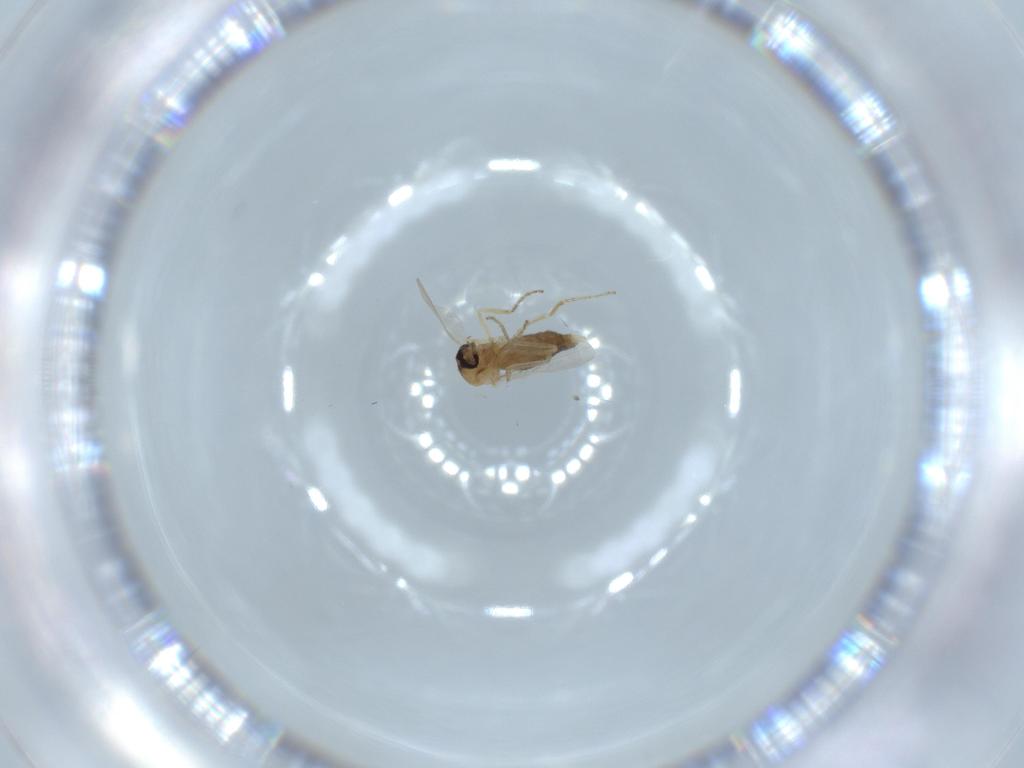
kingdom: Animalia
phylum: Arthropoda
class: Insecta
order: Diptera
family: Ceratopogonidae
